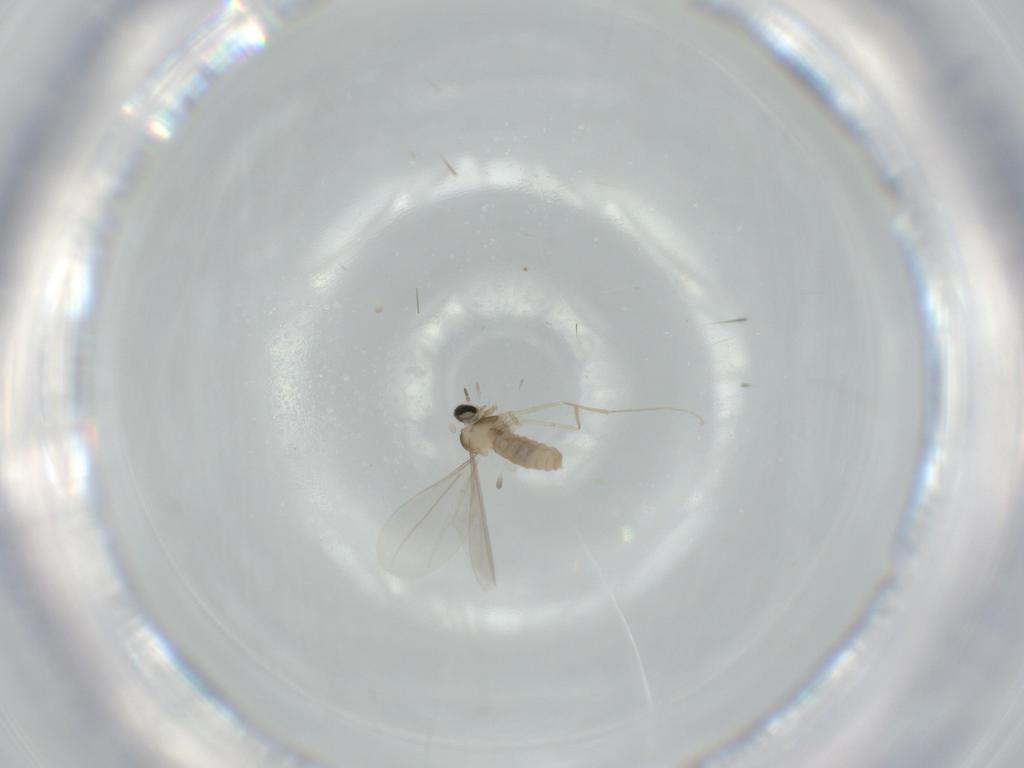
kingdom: Animalia
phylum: Arthropoda
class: Insecta
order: Diptera
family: Cecidomyiidae
